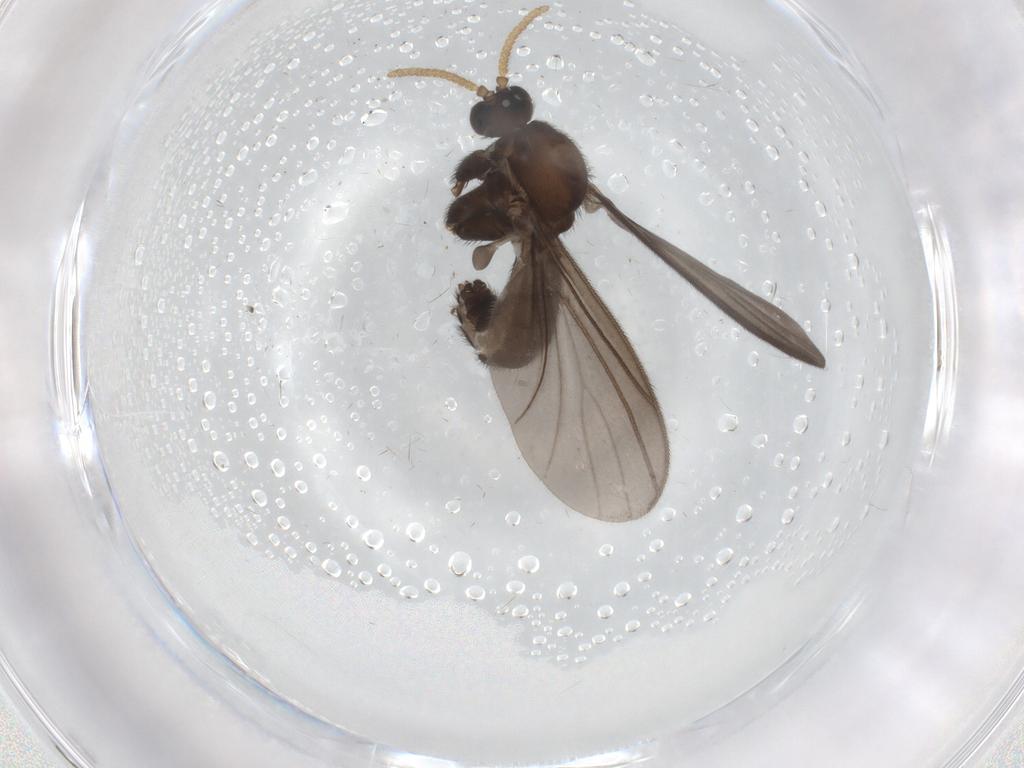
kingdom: Animalia
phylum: Arthropoda
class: Insecta
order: Diptera
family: Milichiidae
